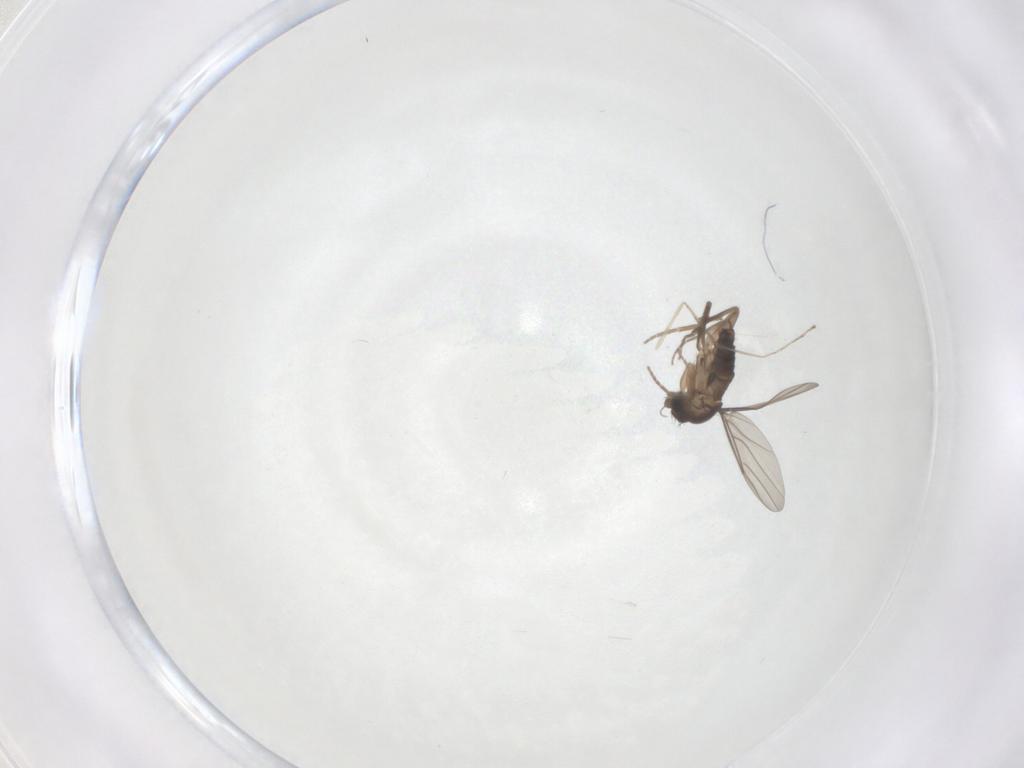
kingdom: Animalia
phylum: Arthropoda
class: Insecta
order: Diptera
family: Cecidomyiidae
